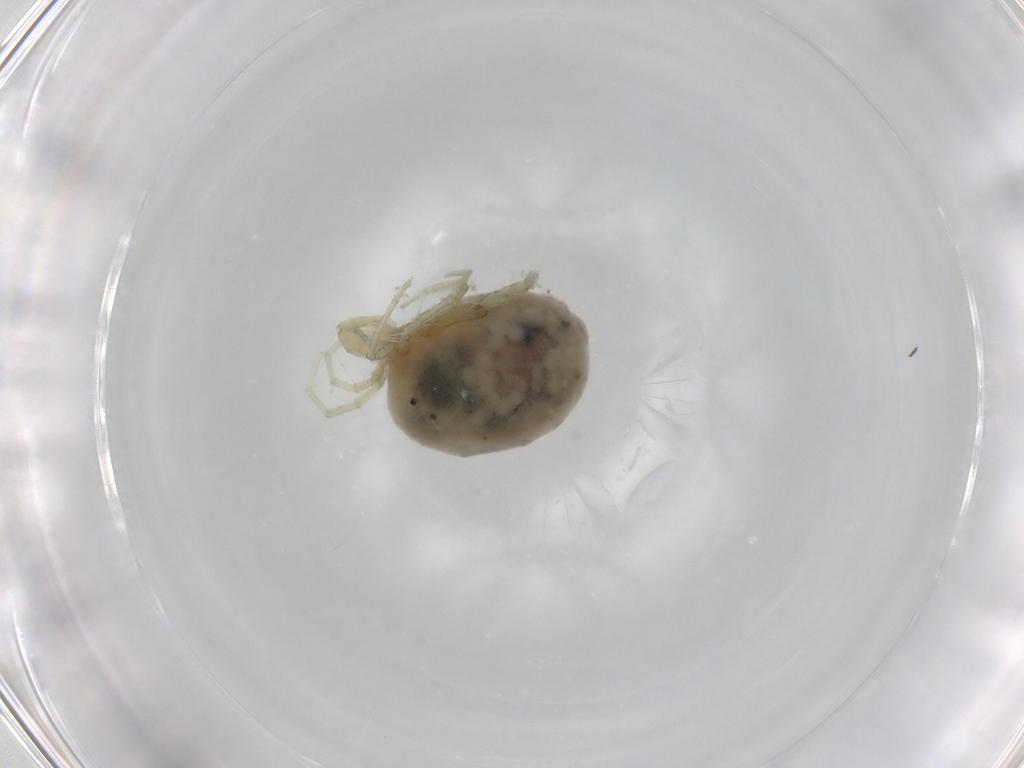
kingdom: Animalia
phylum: Arthropoda
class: Arachnida
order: Trombidiformes
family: Limnesiidae
